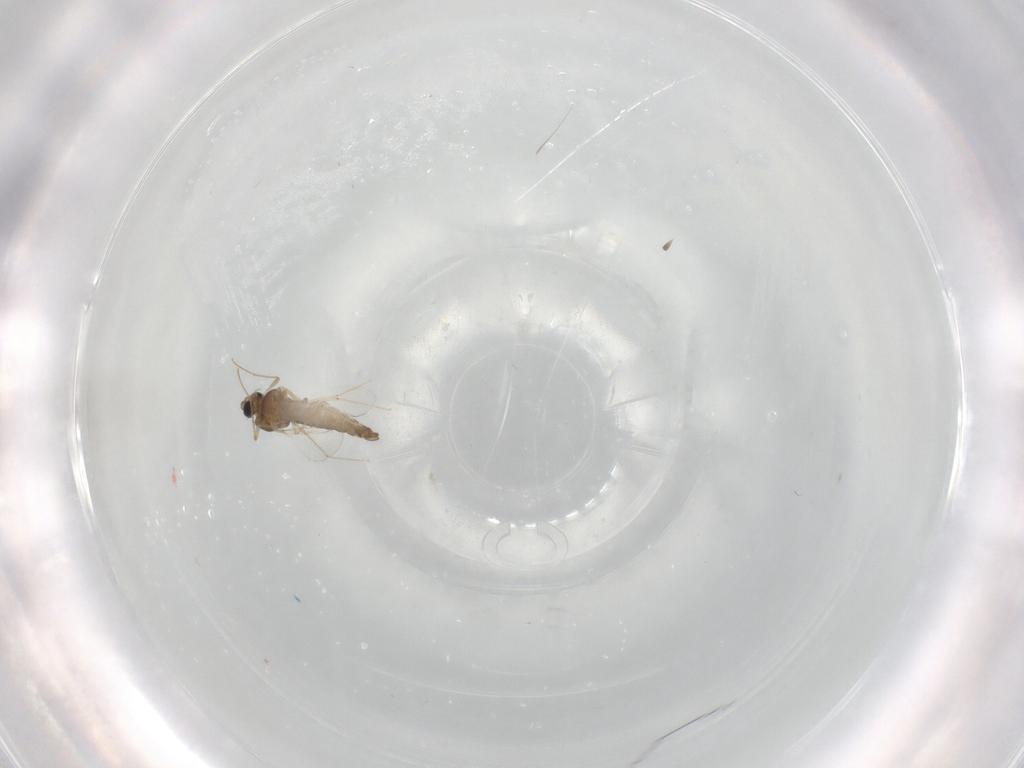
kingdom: Animalia
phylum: Arthropoda
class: Insecta
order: Diptera
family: Chironomidae
